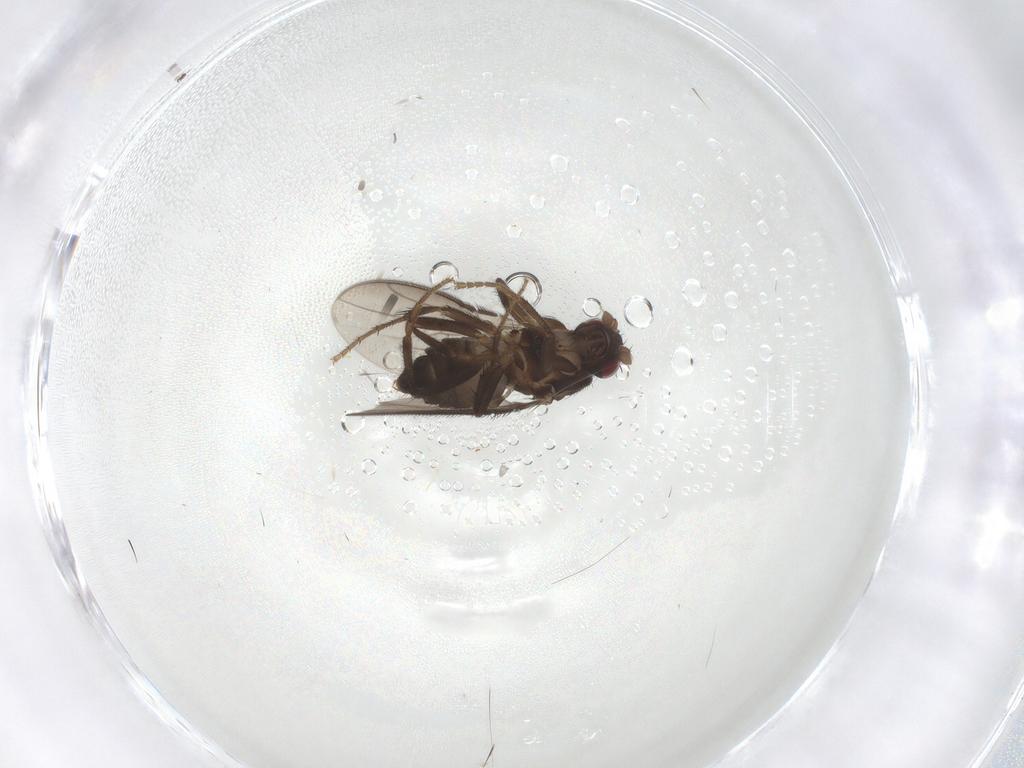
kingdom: Animalia
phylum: Arthropoda
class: Insecta
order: Diptera
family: Sphaeroceridae
